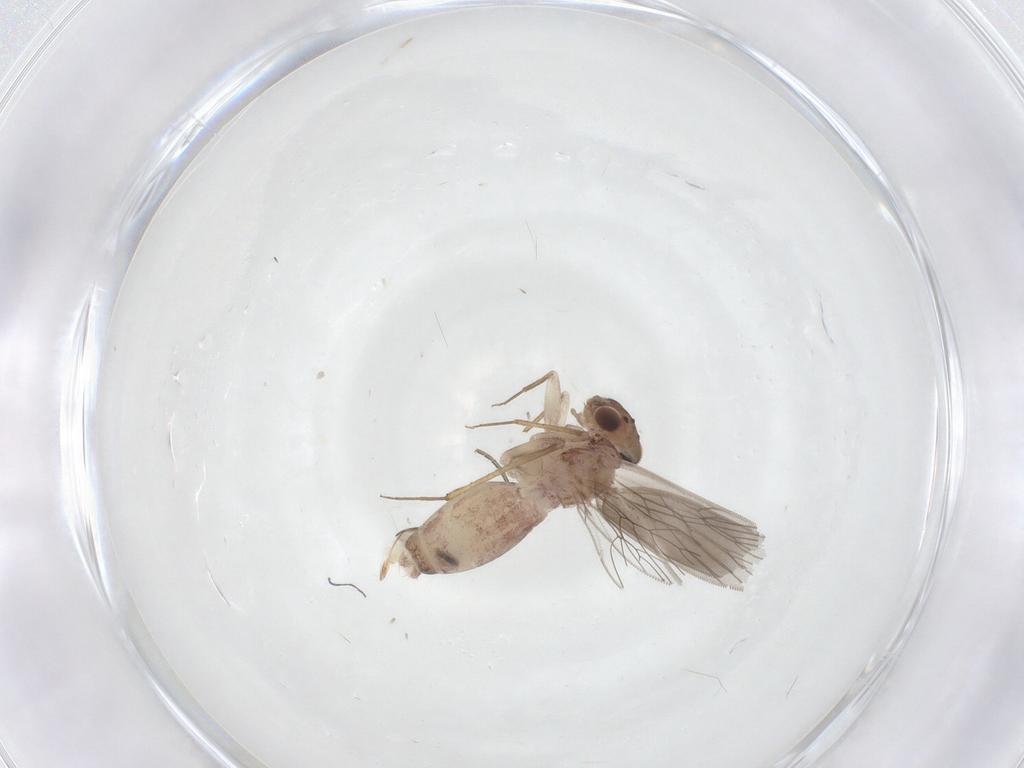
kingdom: Animalia
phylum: Arthropoda
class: Insecta
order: Psocodea
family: Lepidopsocidae
